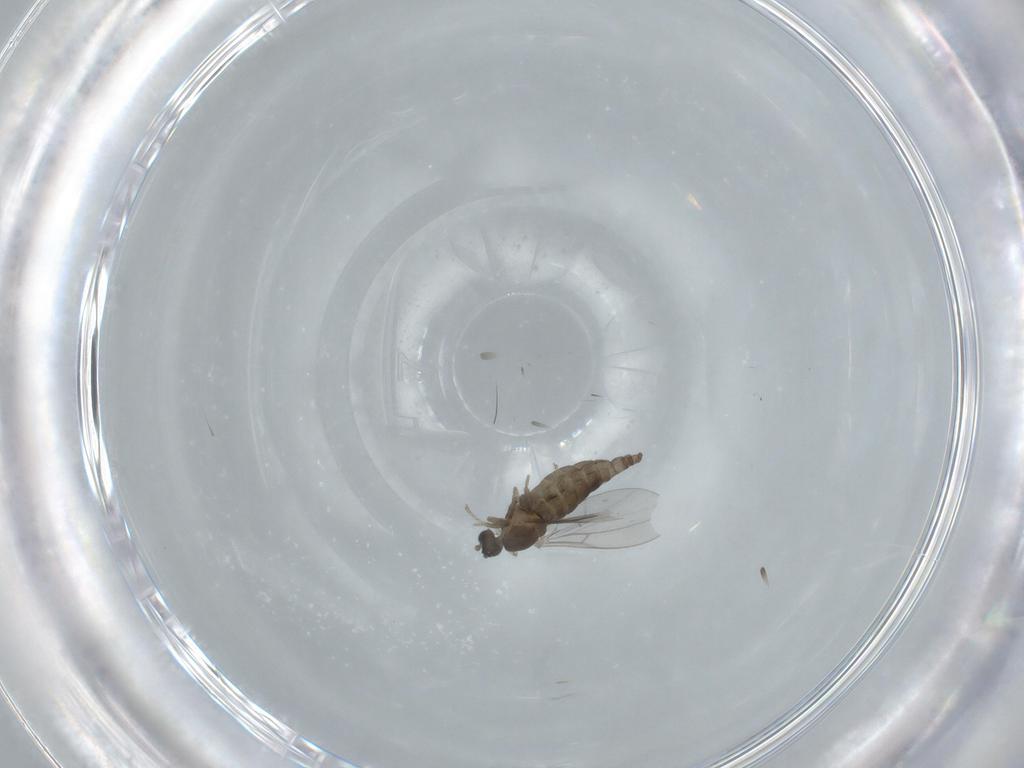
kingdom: Animalia
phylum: Arthropoda
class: Insecta
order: Diptera
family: Cecidomyiidae
